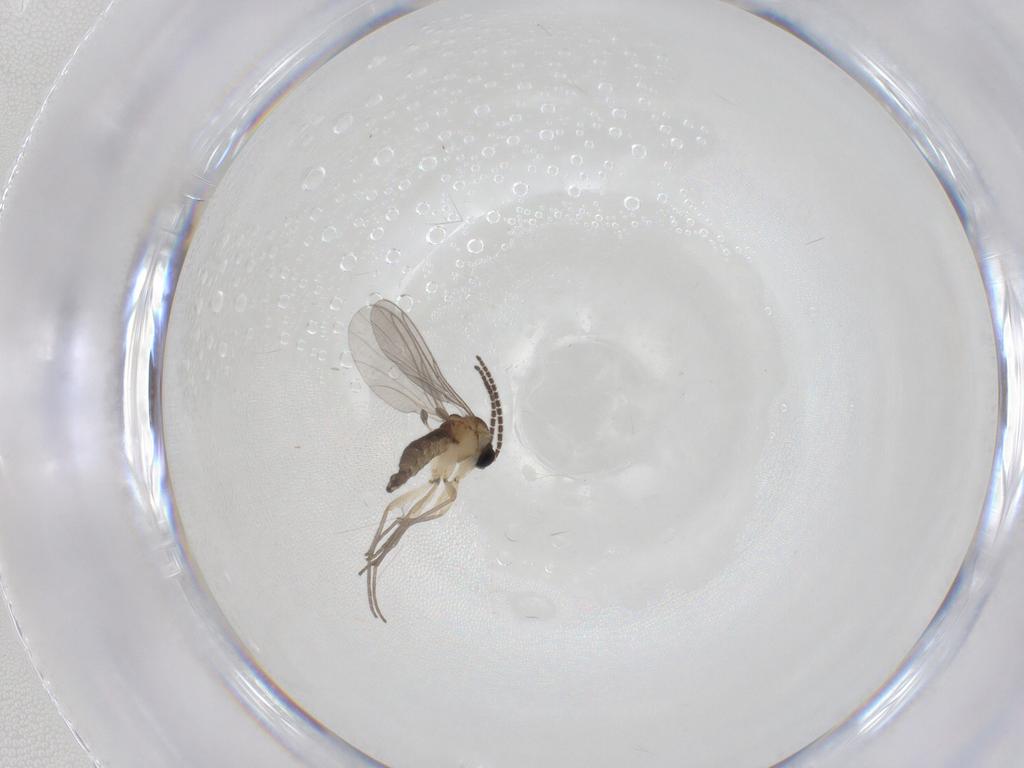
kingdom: Animalia
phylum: Arthropoda
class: Insecta
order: Diptera
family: Sciaridae
